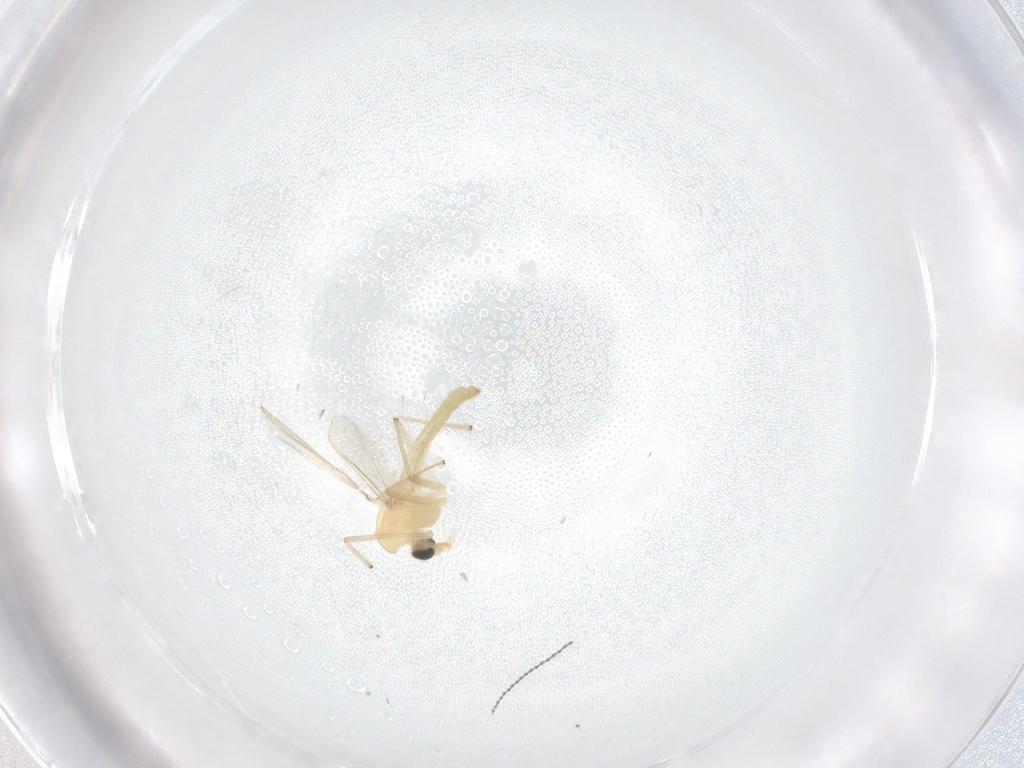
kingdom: Animalia
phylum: Arthropoda
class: Insecta
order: Diptera
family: Chironomidae
